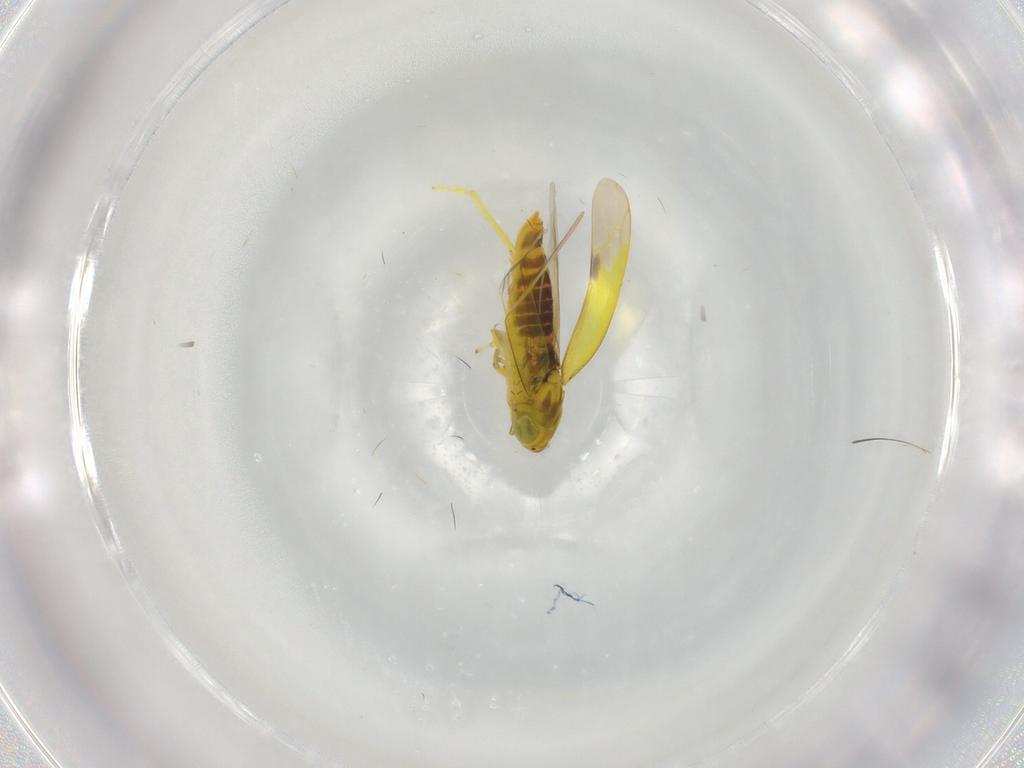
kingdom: Animalia
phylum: Arthropoda
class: Insecta
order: Hemiptera
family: Cicadellidae
